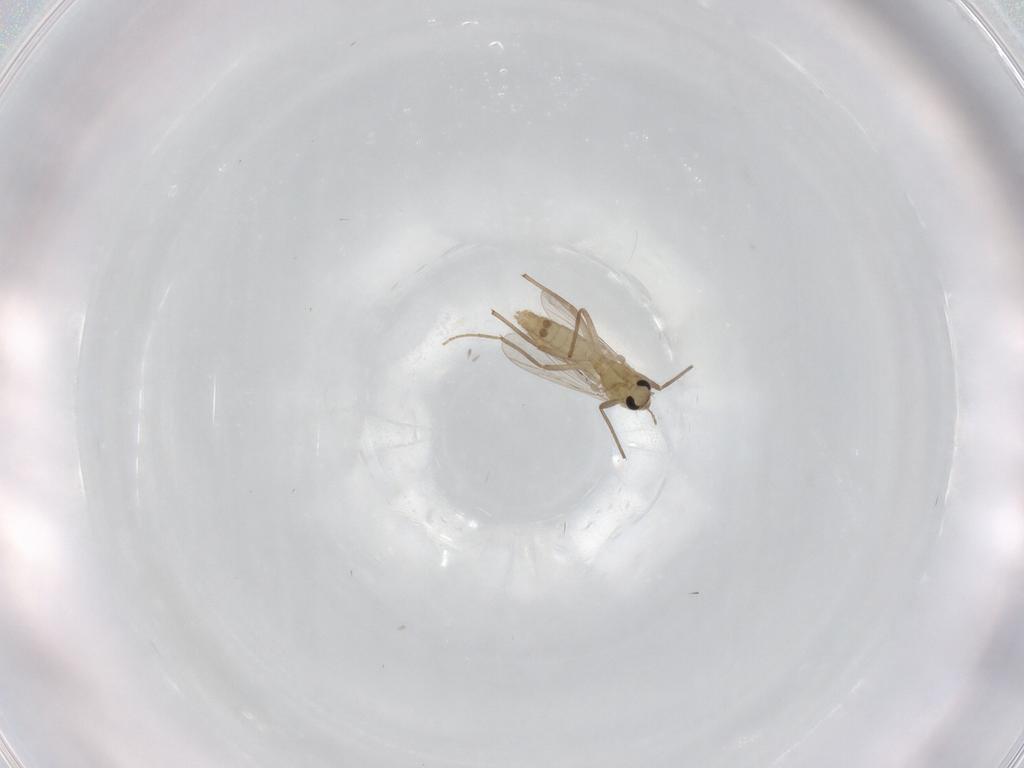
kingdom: Animalia
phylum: Arthropoda
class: Insecta
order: Diptera
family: Chironomidae
